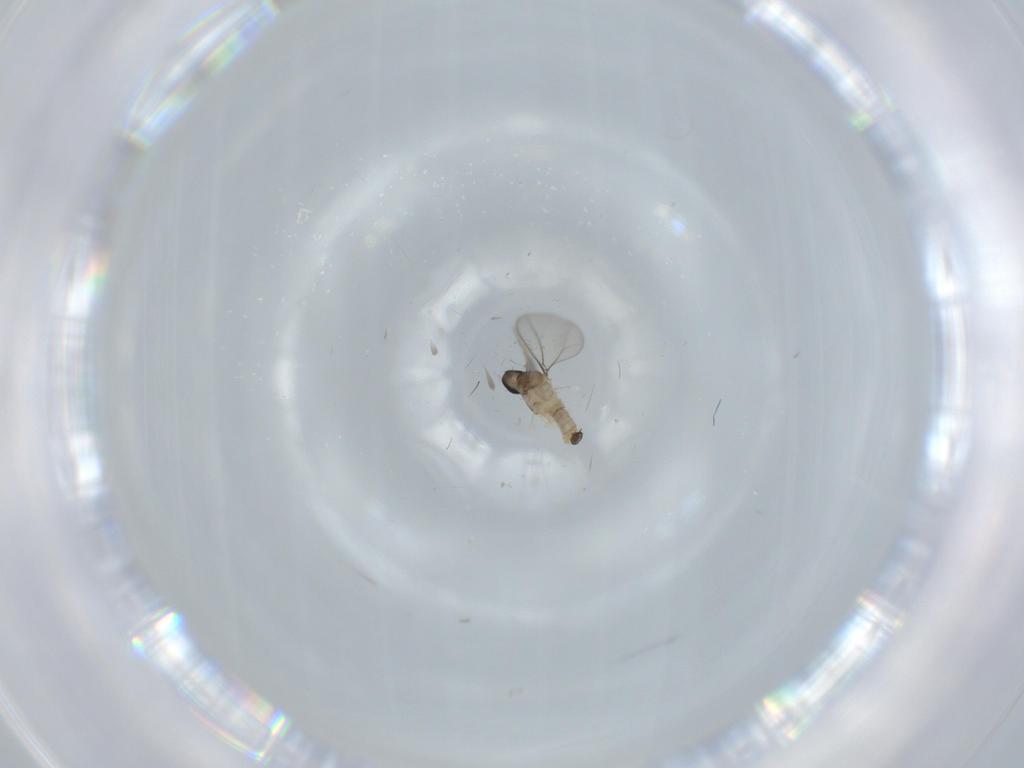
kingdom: Animalia
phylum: Arthropoda
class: Insecta
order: Diptera
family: Cecidomyiidae
